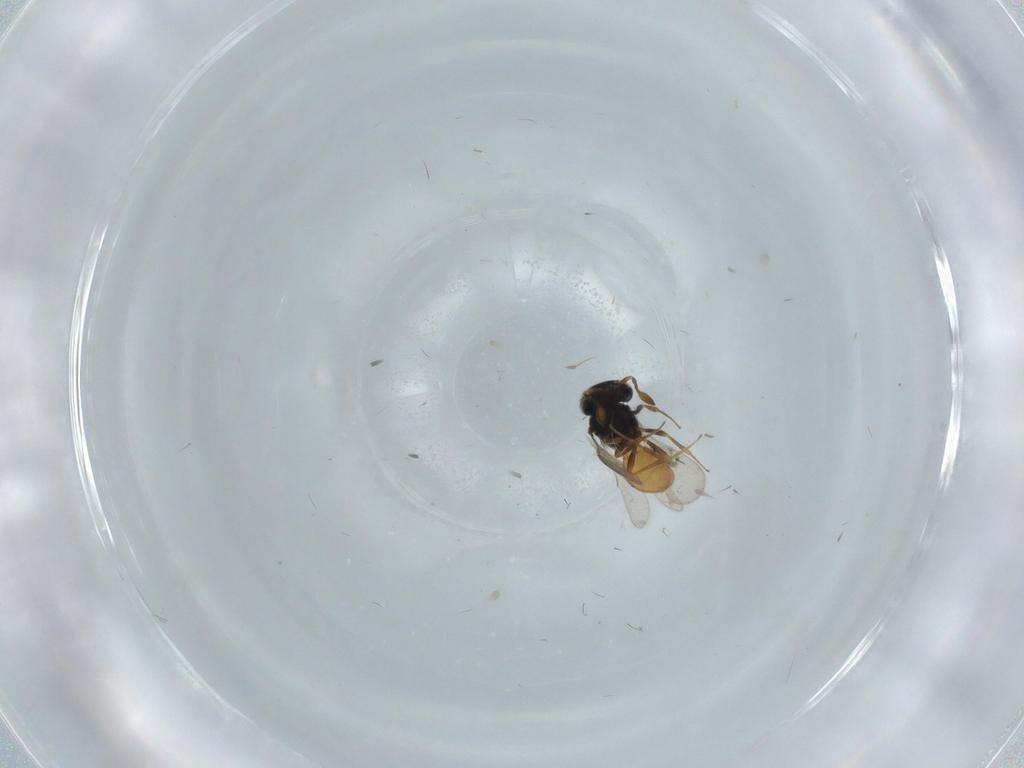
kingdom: Animalia
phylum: Arthropoda
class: Insecta
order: Hymenoptera
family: Scelionidae
